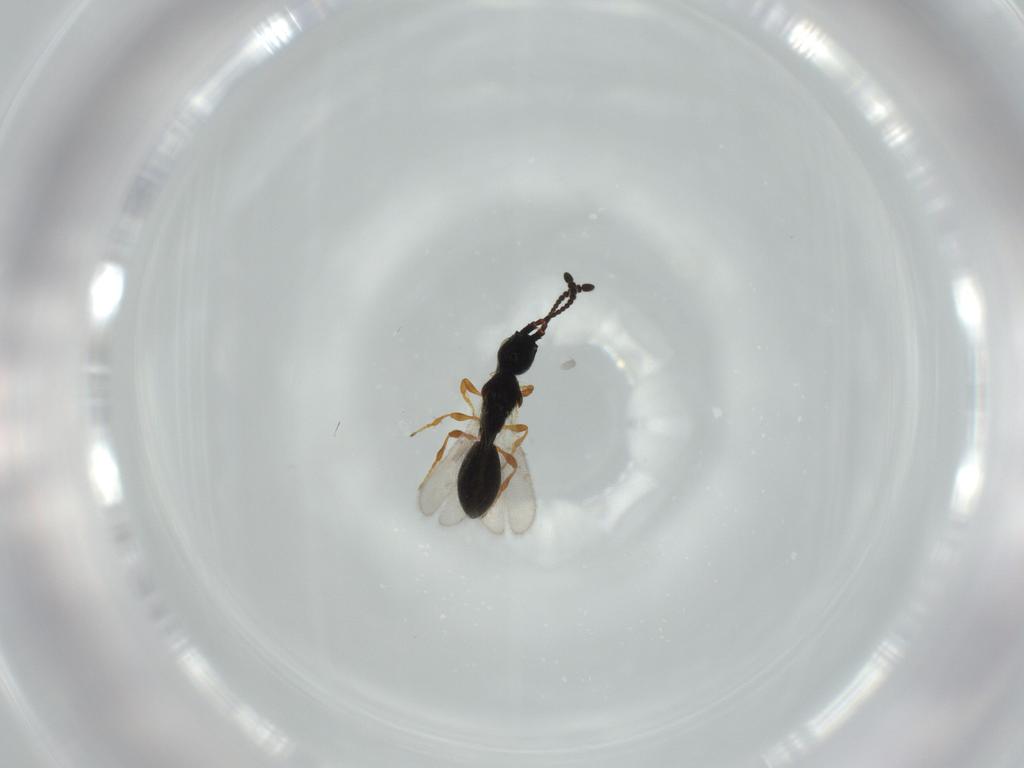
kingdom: Animalia
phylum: Arthropoda
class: Insecta
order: Hymenoptera
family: Diapriidae
